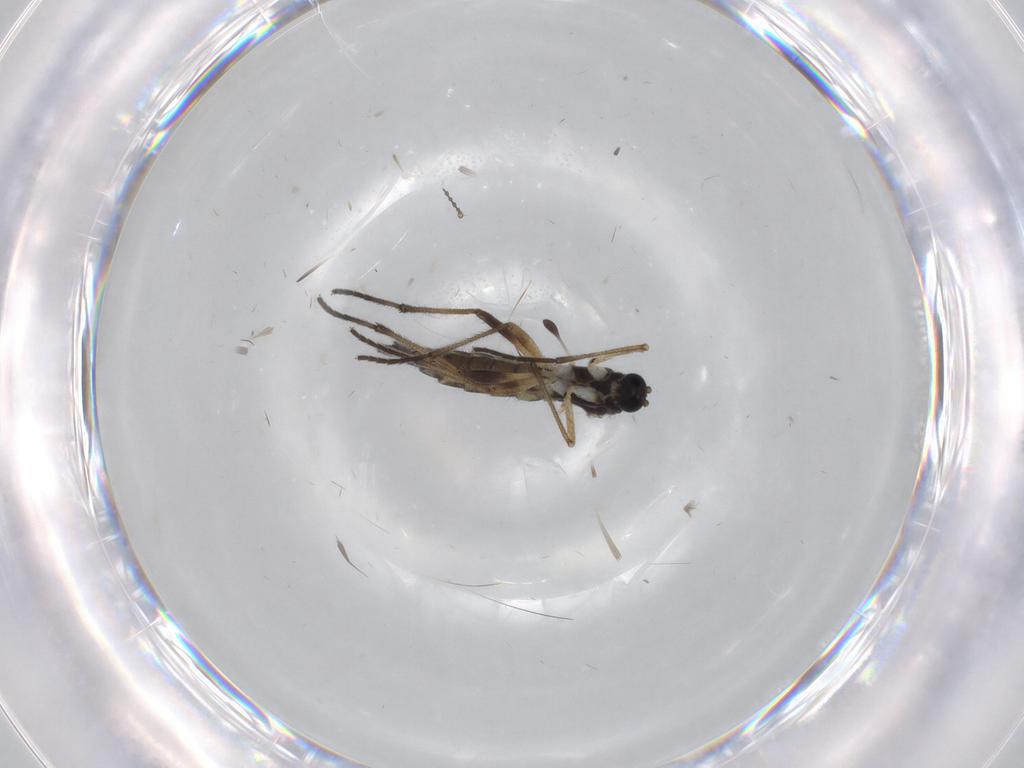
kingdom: Animalia
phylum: Arthropoda
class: Insecta
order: Diptera
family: Sciaridae
